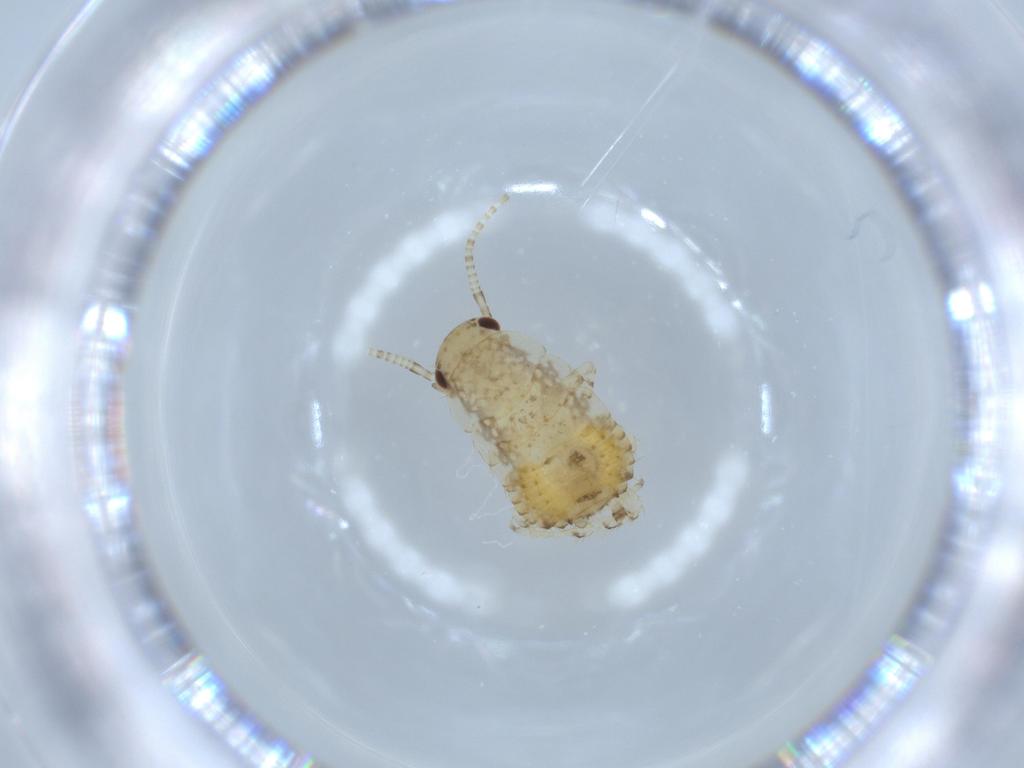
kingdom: Animalia
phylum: Arthropoda
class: Insecta
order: Blattodea
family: Ectobiidae
